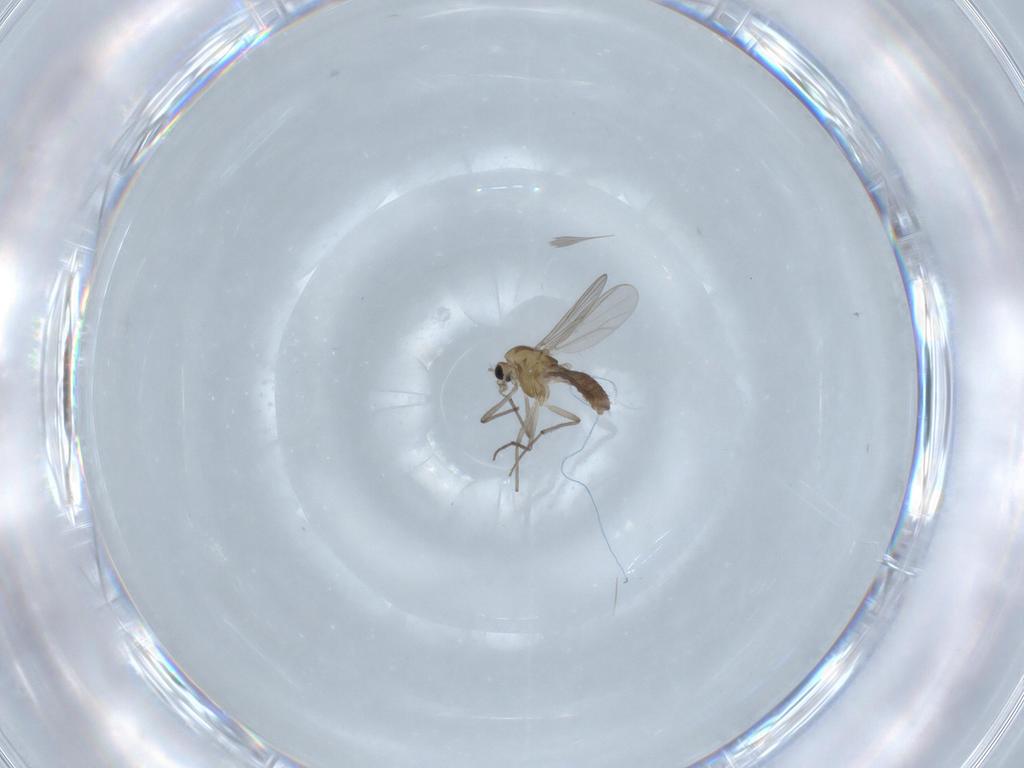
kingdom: Animalia
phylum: Arthropoda
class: Insecta
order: Diptera
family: Chironomidae
